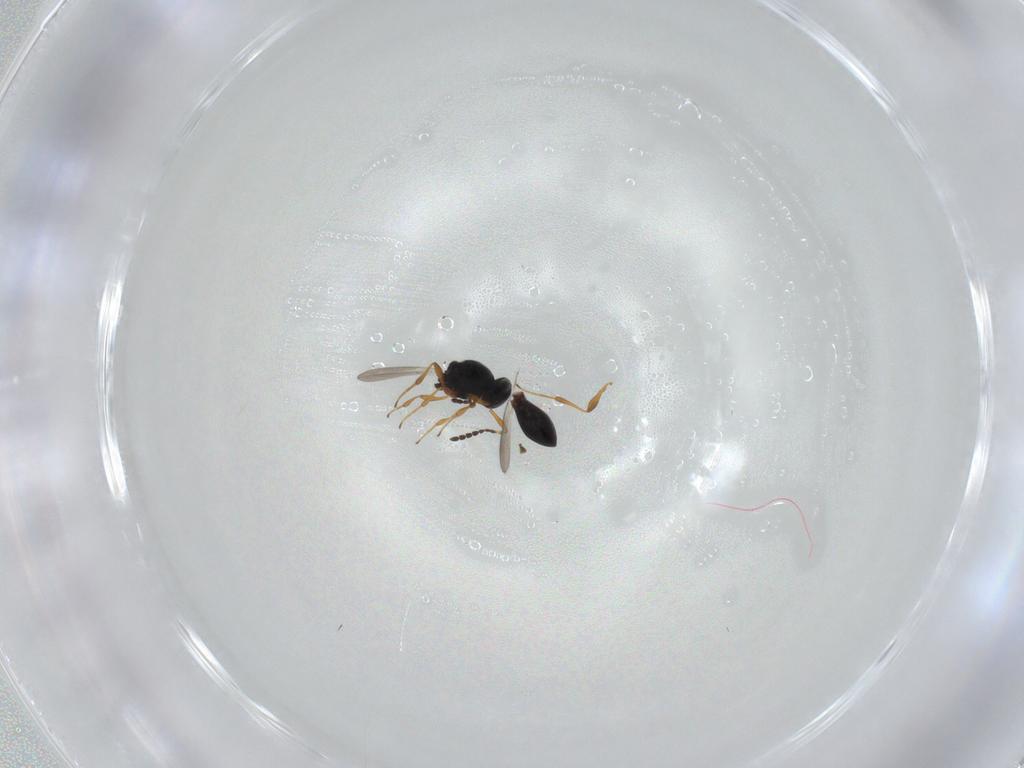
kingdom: Animalia
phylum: Arthropoda
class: Insecta
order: Hymenoptera
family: Platygastridae
